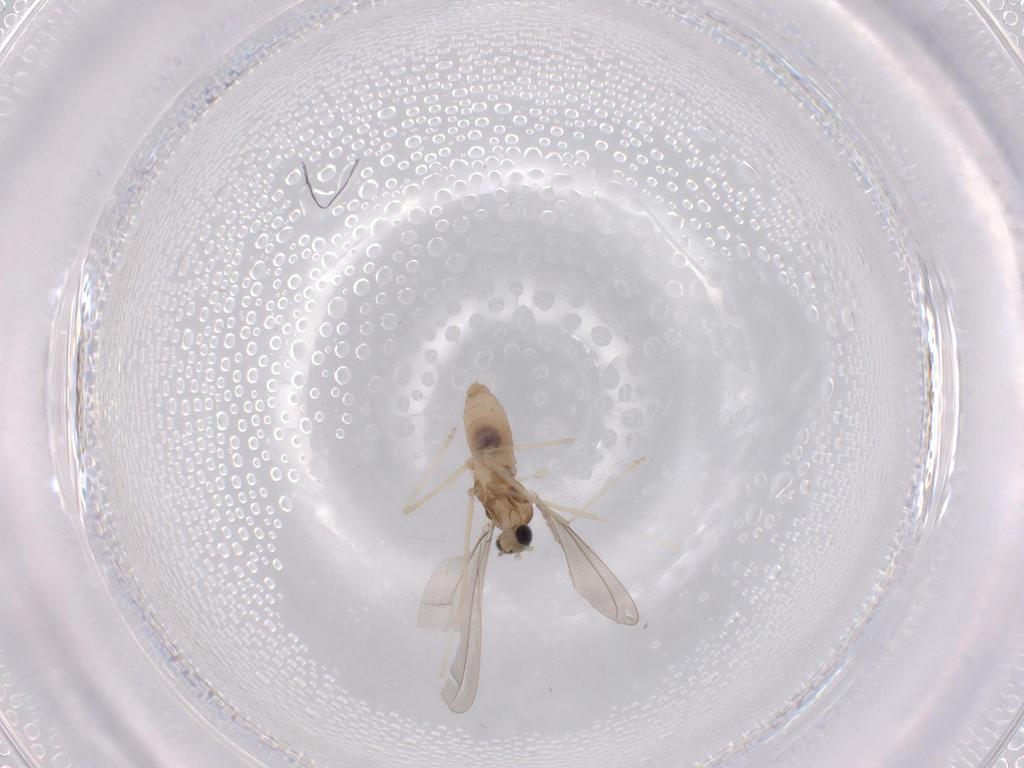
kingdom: Animalia
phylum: Arthropoda
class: Insecta
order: Diptera
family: Cecidomyiidae
